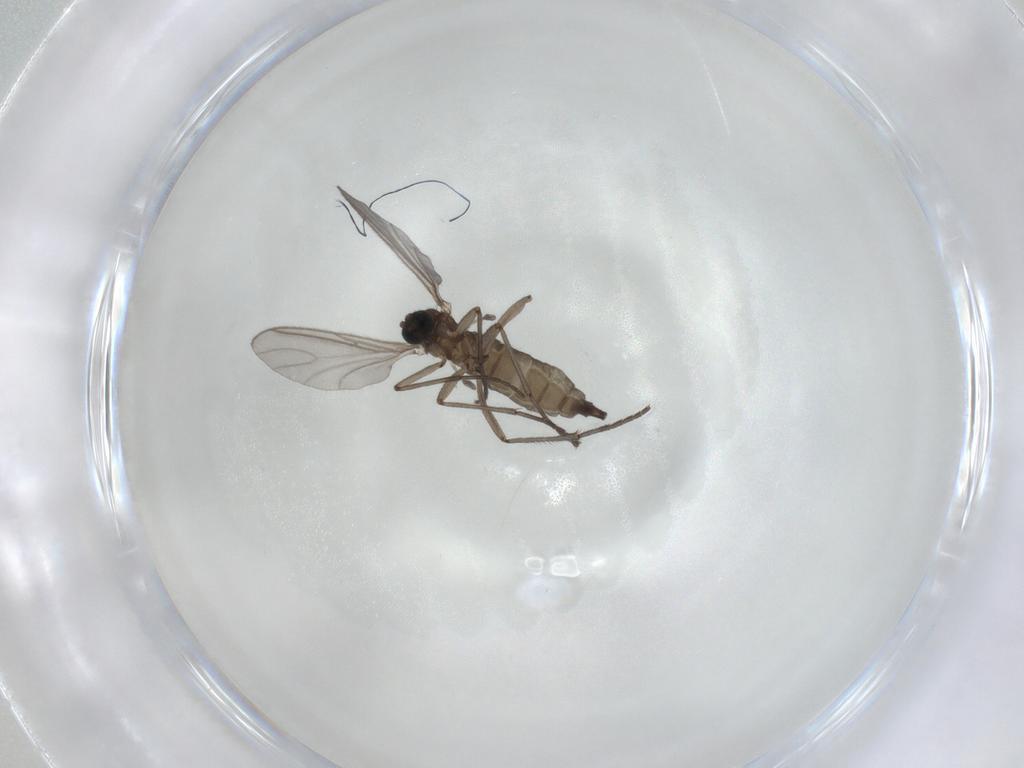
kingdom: Animalia
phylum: Arthropoda
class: Insecta
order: Diptera
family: Sciaridae
